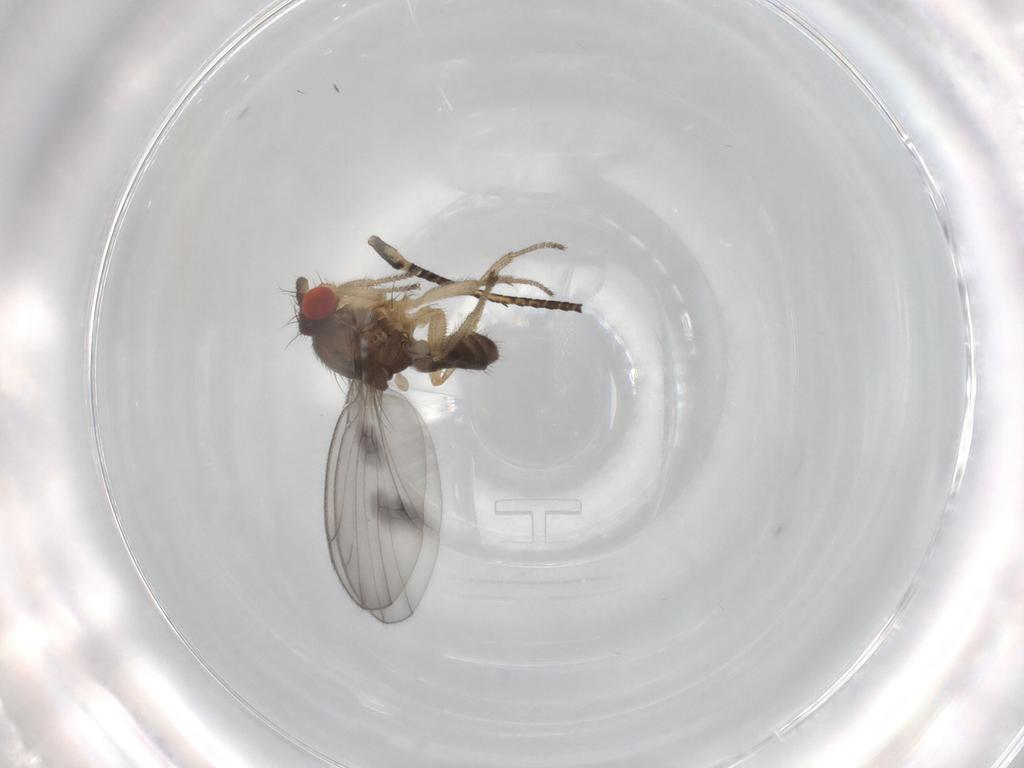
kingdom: Animalia
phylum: Arthropoda
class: Insecta
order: Diptera
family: Drosophilidae
